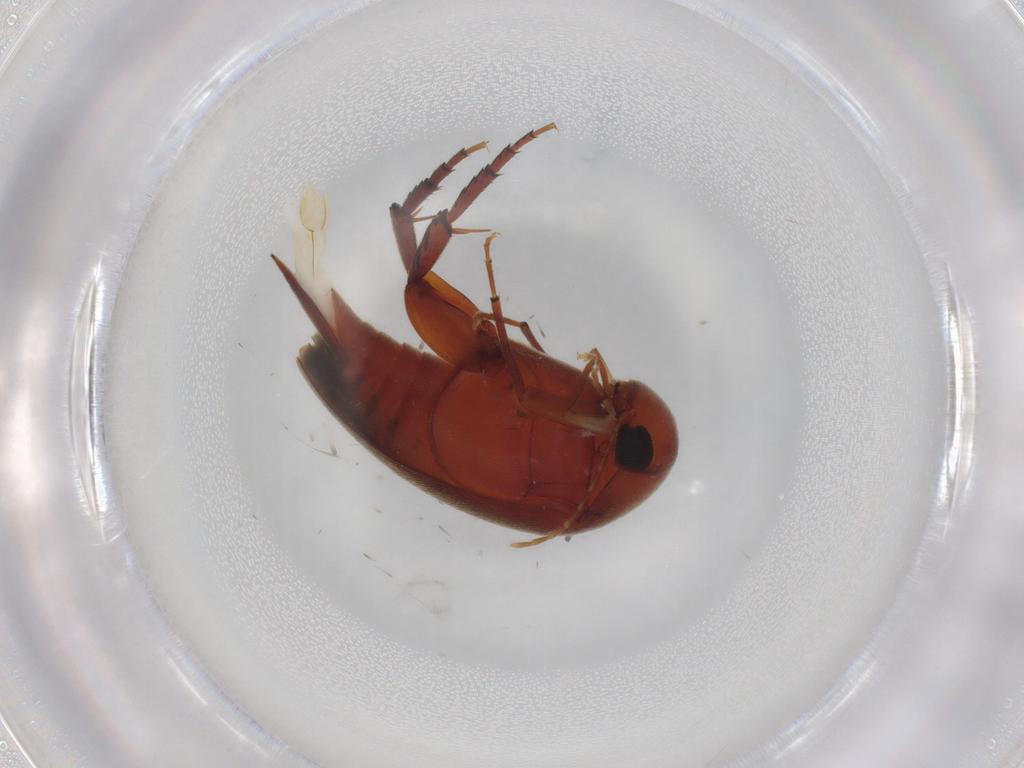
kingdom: Animalia
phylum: Arthropoda
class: Insecta
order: Coleoptera
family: Mordellidae
